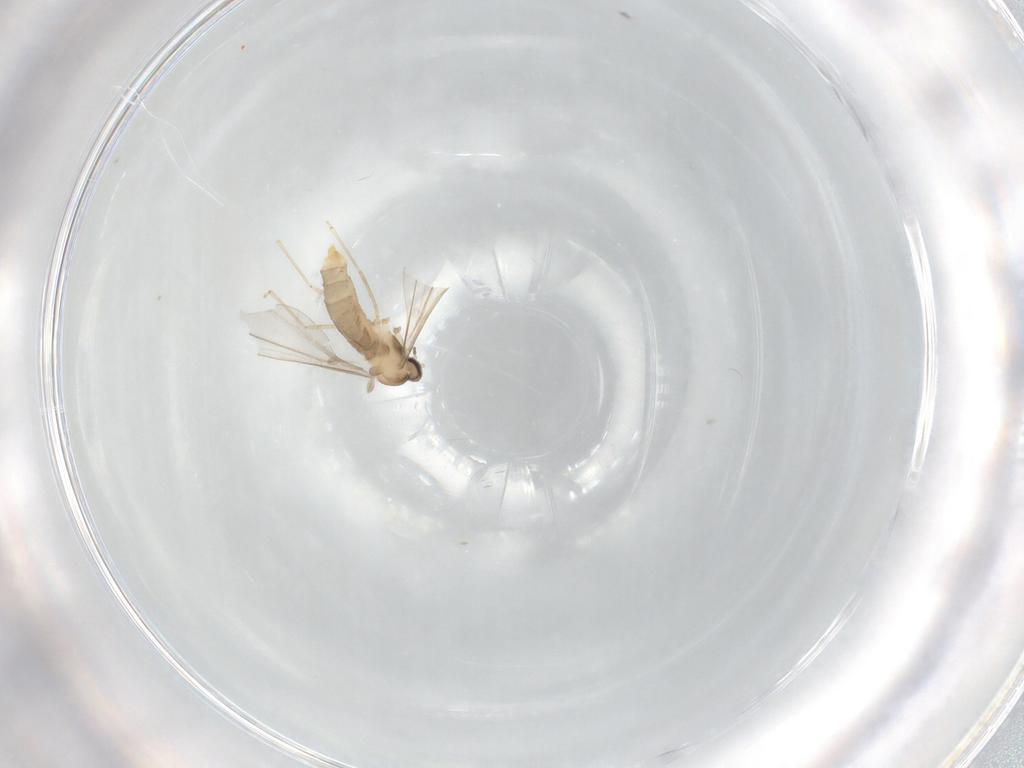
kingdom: Animalia
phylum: Arthropoda
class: Insecta
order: Diptera
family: Cecidomyiidae
